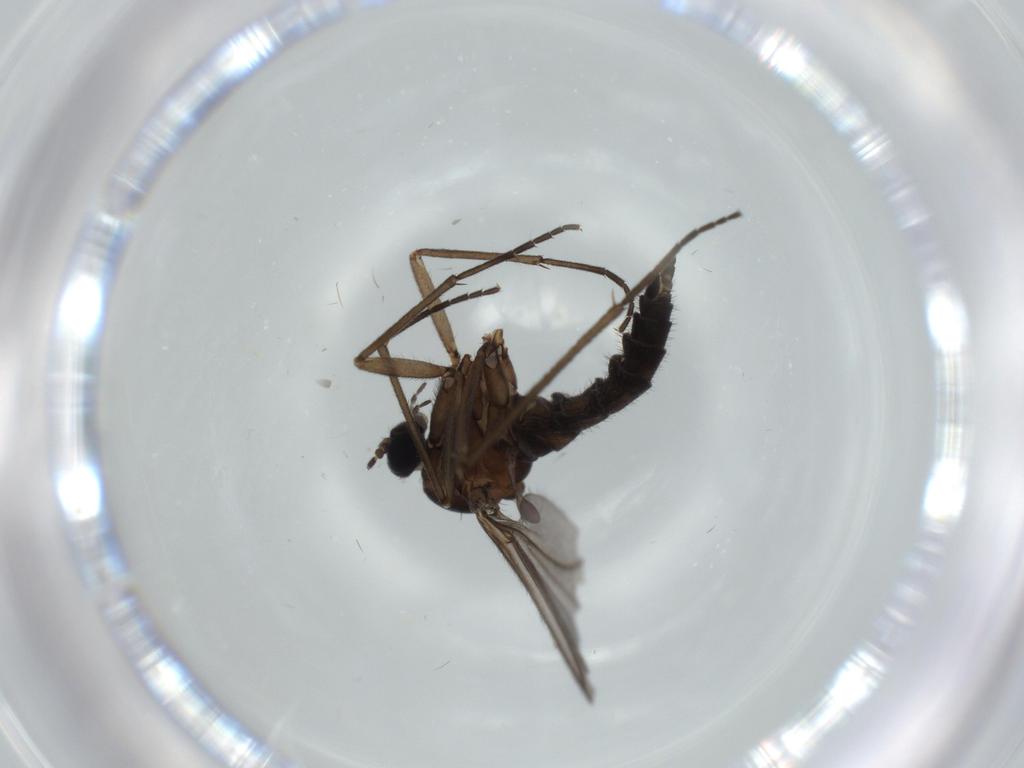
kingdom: Animalia
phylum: Arthropoda
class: Insecta
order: Diptera
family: Sciaridae
